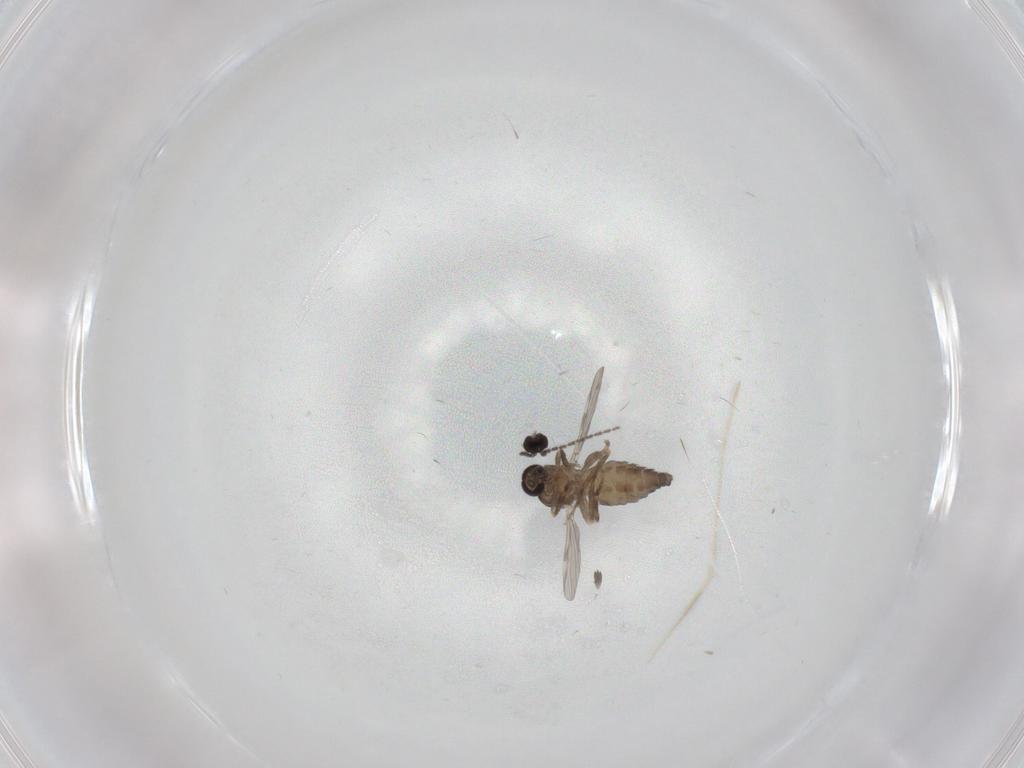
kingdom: Animalia
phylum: Arthropoda
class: Insecta
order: Diptera
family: Ceratopogonidae
